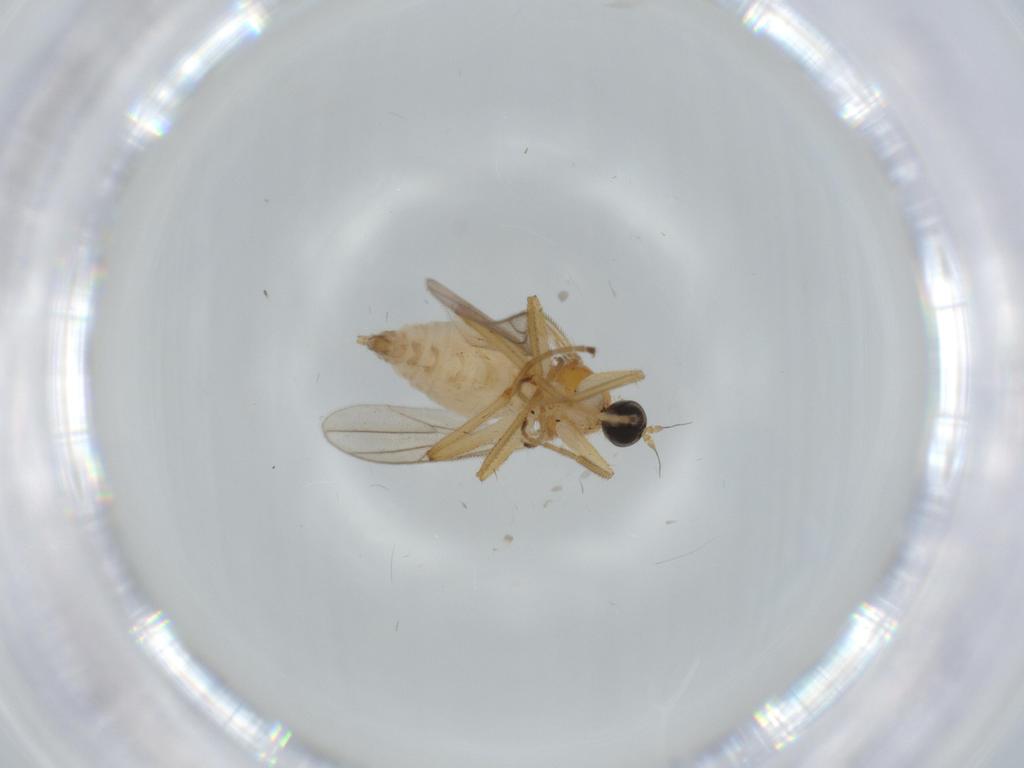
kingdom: Animalia
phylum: Arthropoda
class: Insecta
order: Diptera
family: Hybotidae
